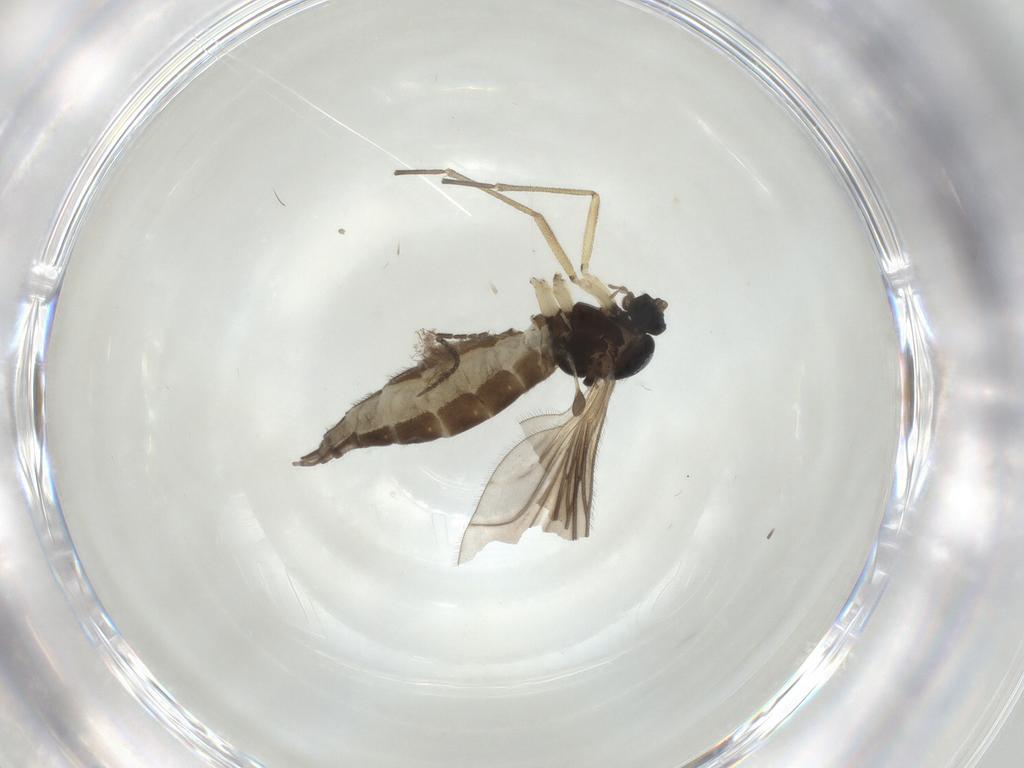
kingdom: Animalia
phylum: Arthropoda
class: Insecta
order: Diptera
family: Sciaridae
